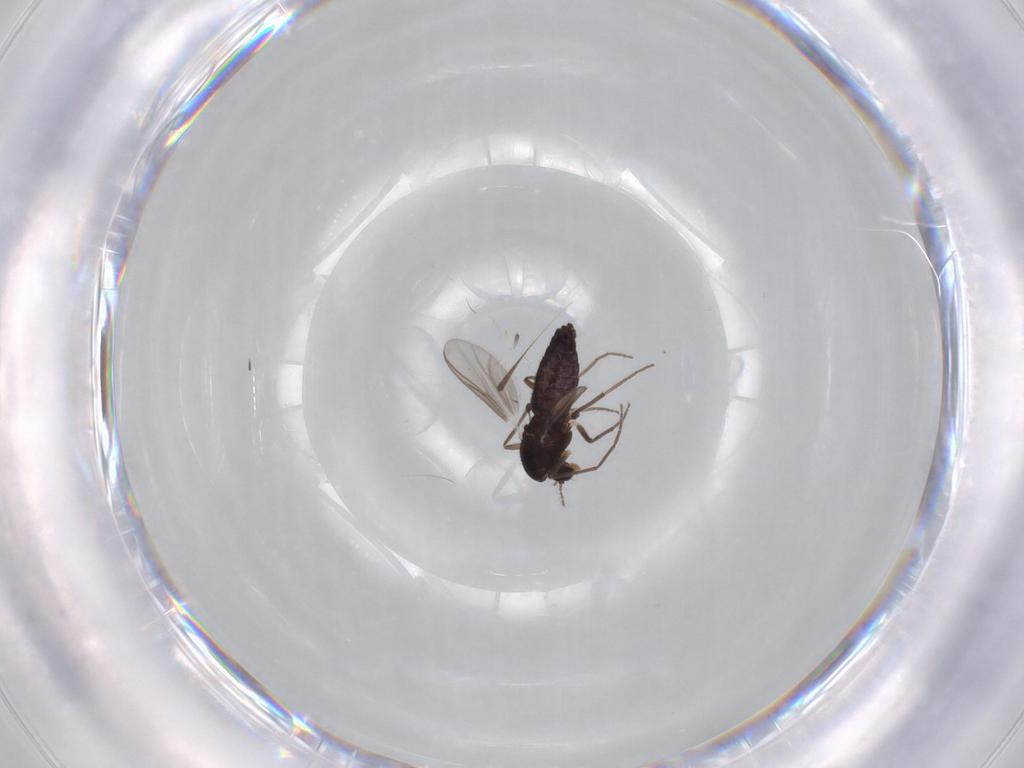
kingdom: Animalia
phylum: Arthropoda
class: Insecta
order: Diptera
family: Chironomidae
